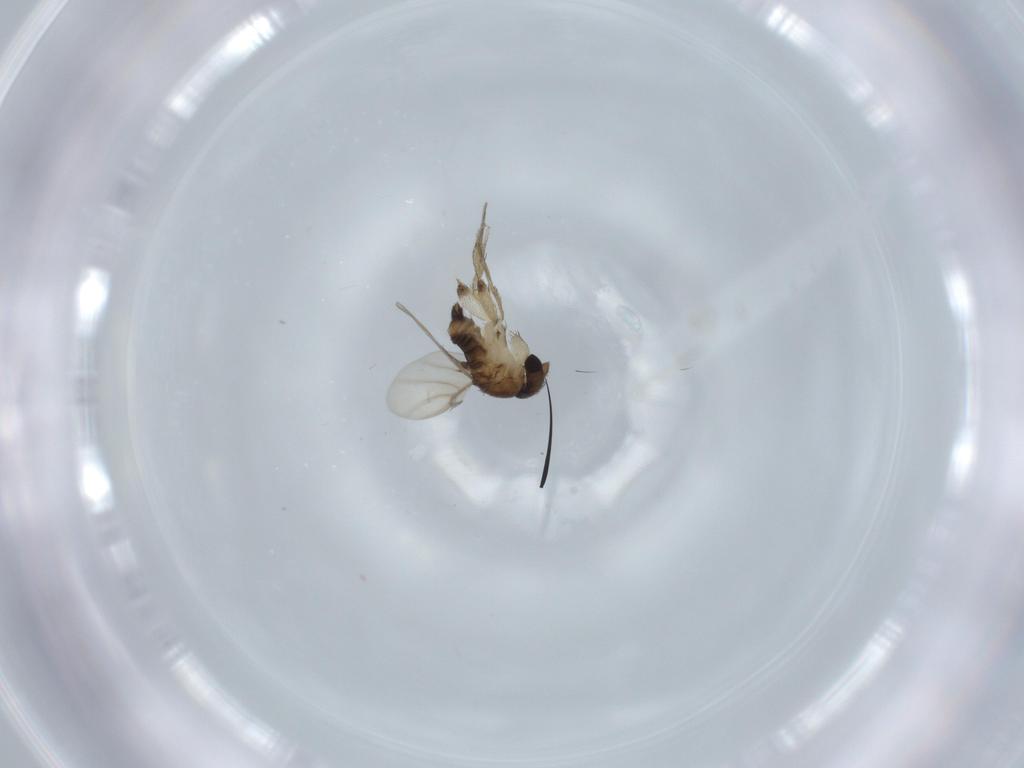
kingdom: Animalia
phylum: Arthropoda
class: Insecta
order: Diptera
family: Phoridae
